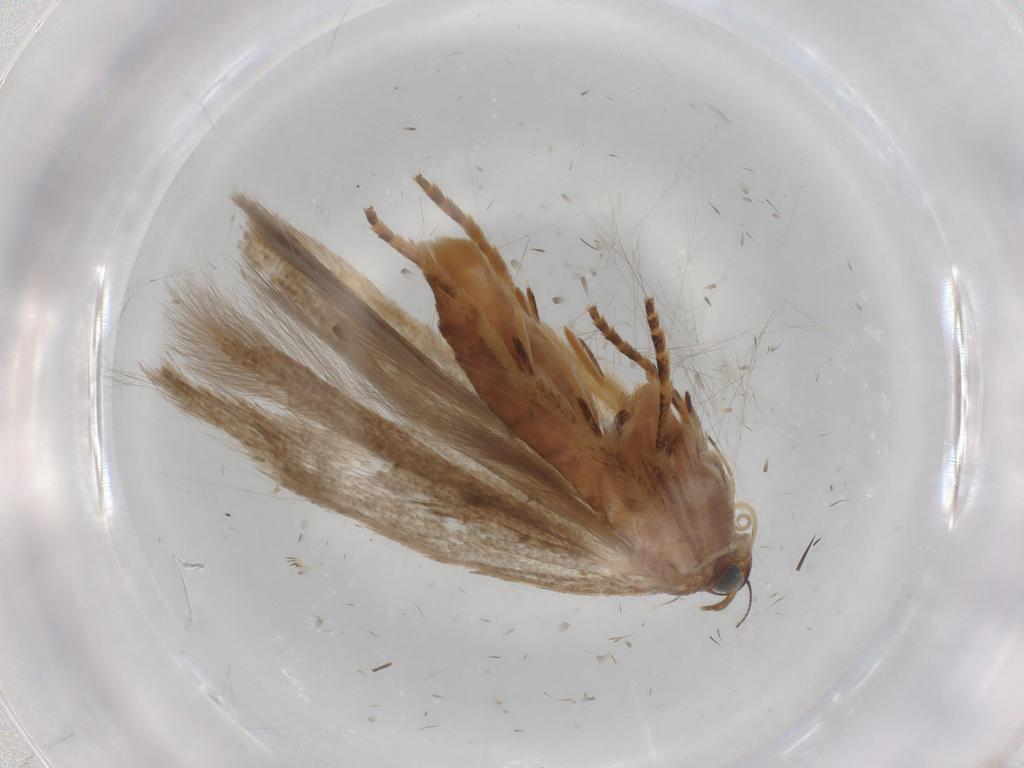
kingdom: Animalia
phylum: Arthropoda
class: Insecta
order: Lepidoptera
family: Gelechiidae
